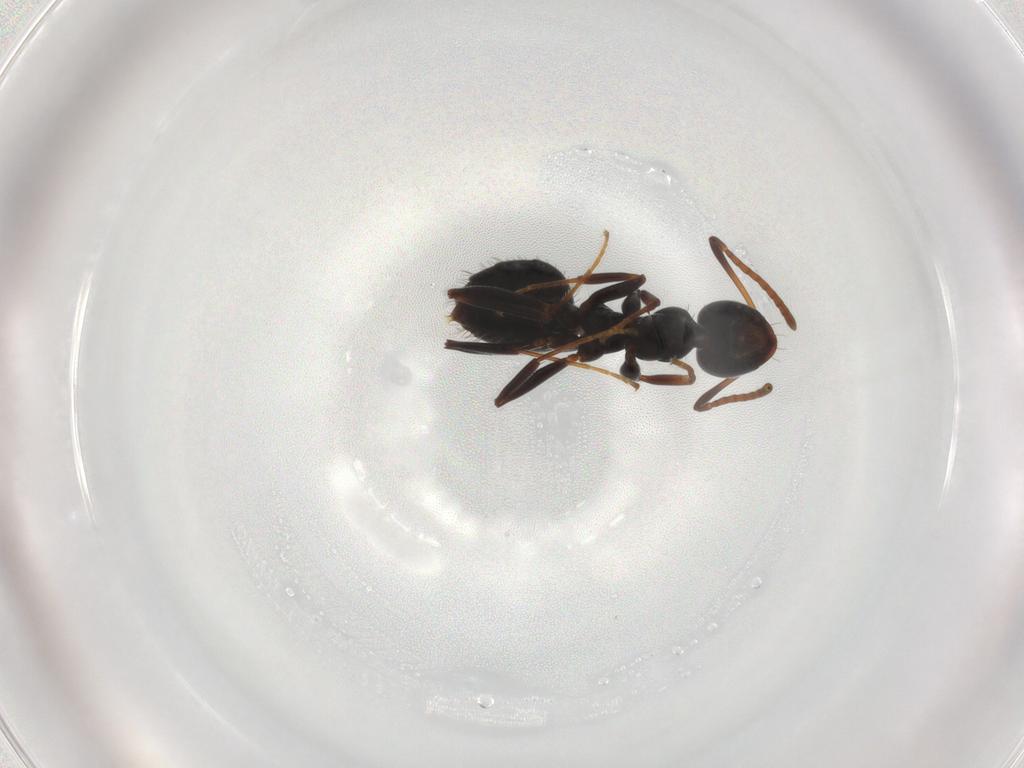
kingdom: Animalia
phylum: Arthropoda
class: Insecta
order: Hymenoptera
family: Formicidae
